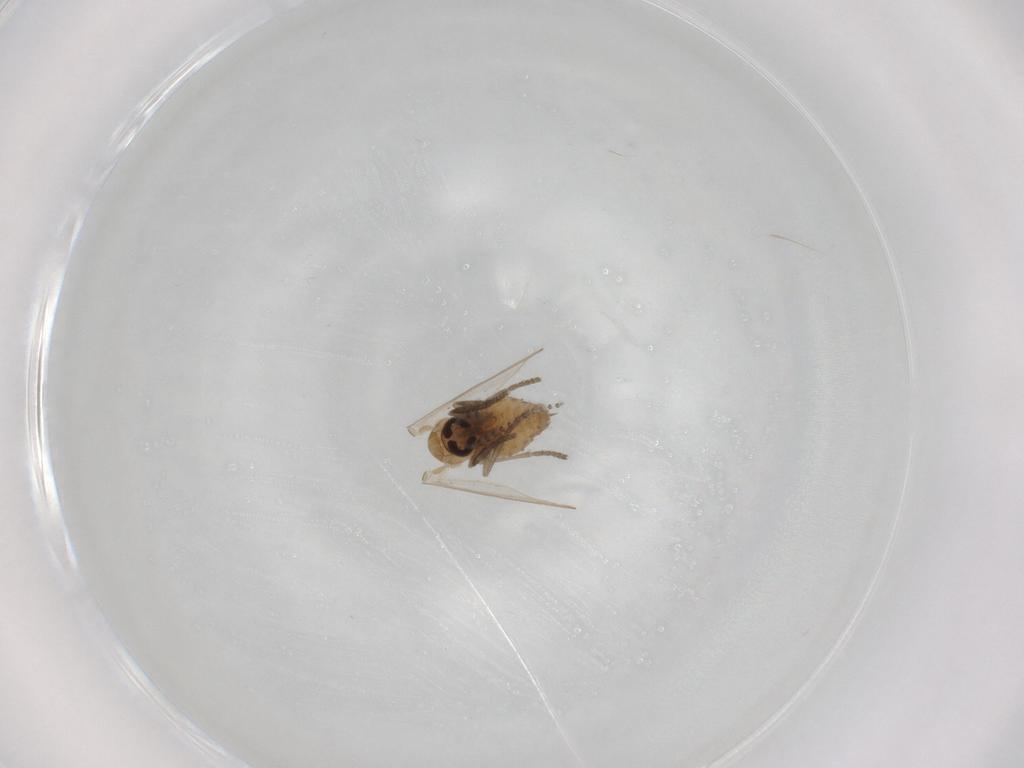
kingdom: Animalia
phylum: Arthropoda
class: Insecta
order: Diptera
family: Psychodidae
